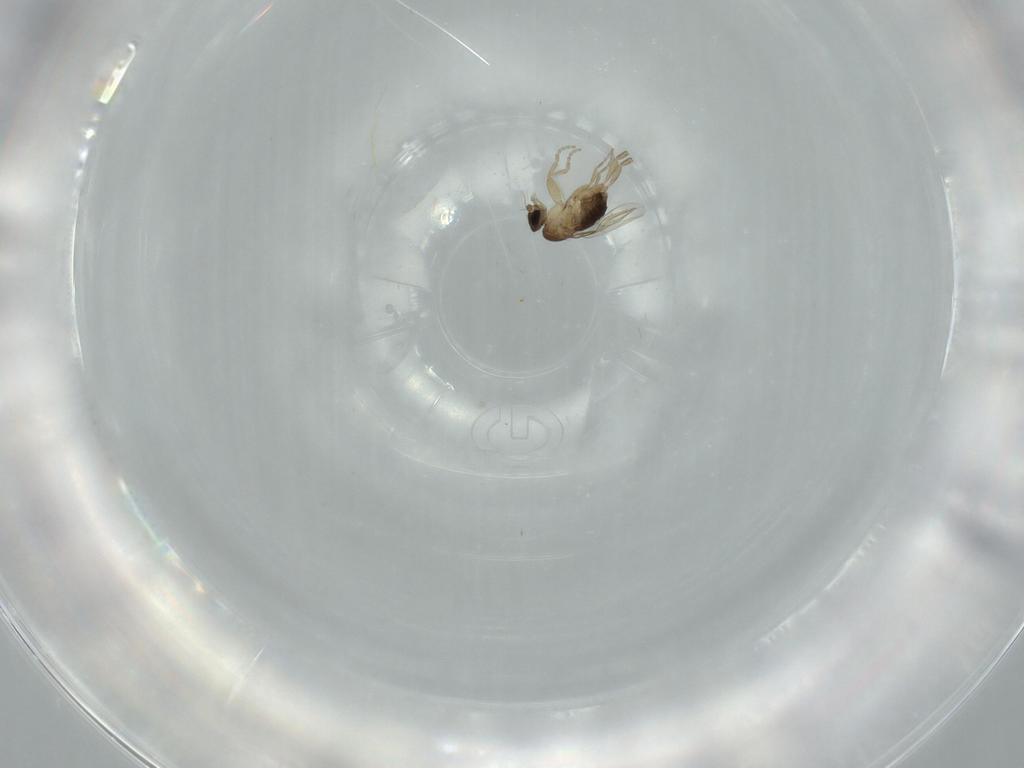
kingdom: Animalia
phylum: Arthropoda
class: Insecta
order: Diptera
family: Phoridae
